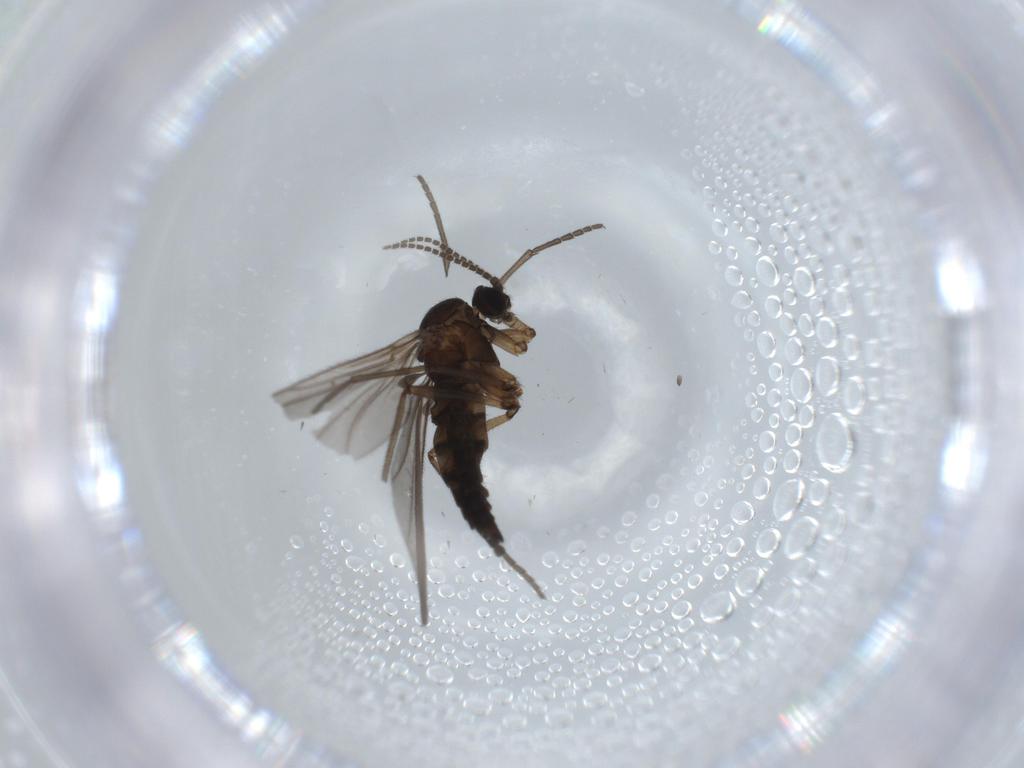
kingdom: Animalia
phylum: Arthropoda
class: Insecta
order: Diptera
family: Sciaridae
